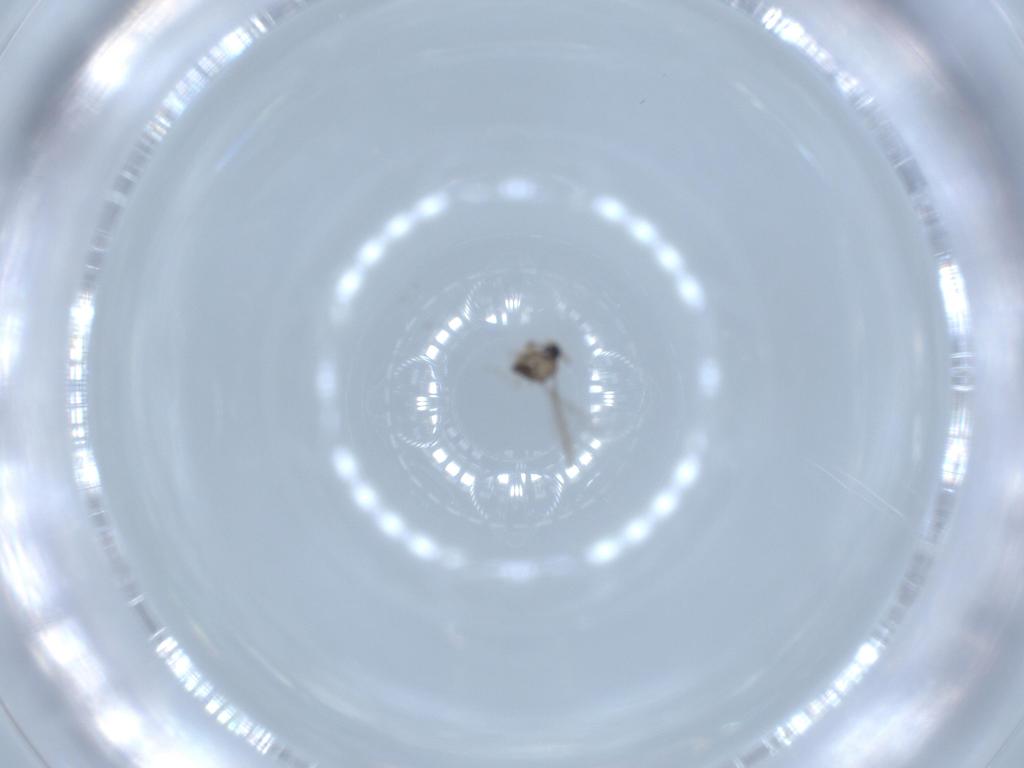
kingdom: Animalia
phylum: Arthropoda
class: Insecta
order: Diptera
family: Cecidomyiidae
